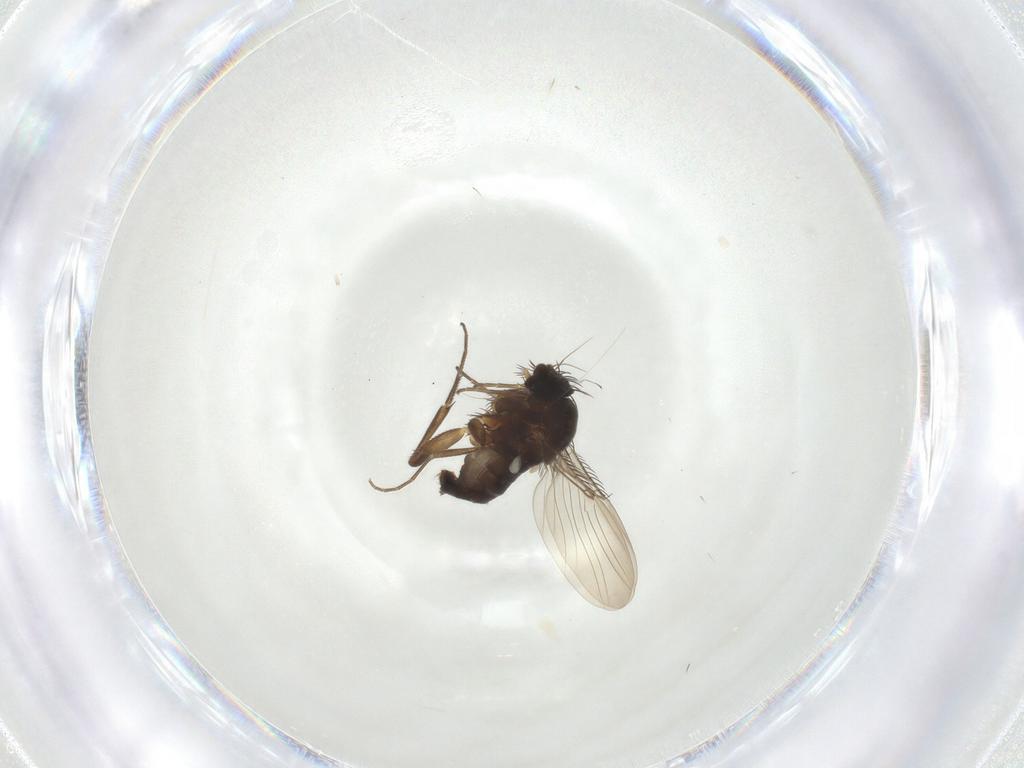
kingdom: Animalia
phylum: Arthropoda
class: Insecta
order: Diptera
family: Phoridae
